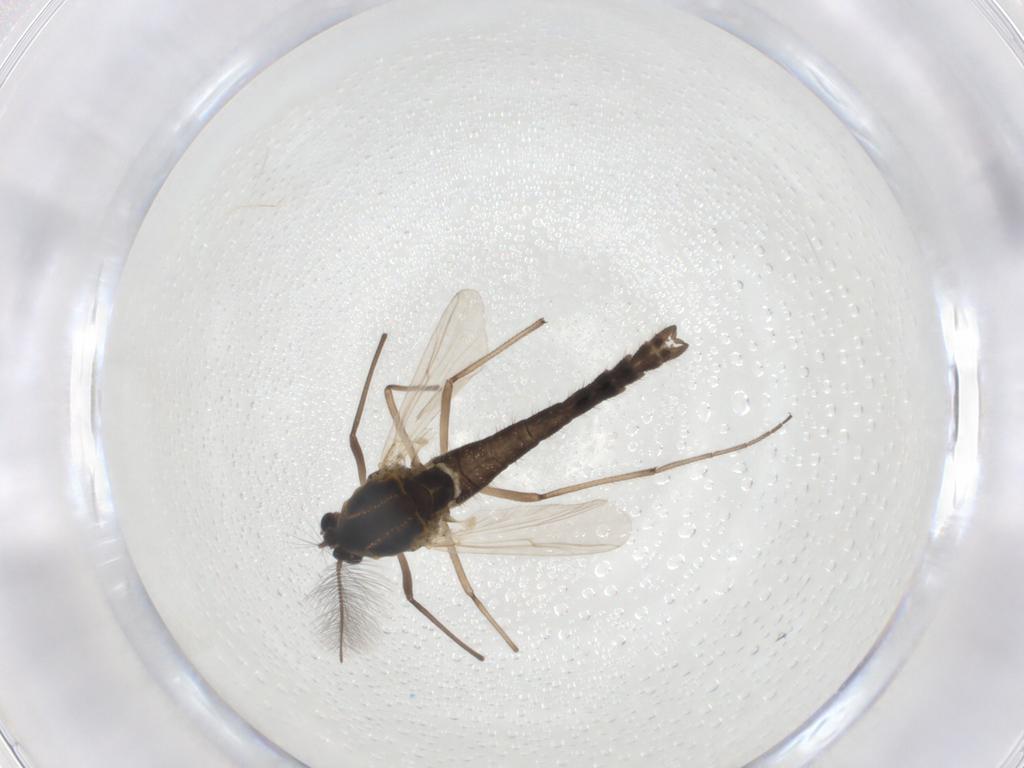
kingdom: Animalia
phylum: Arthropoda
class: Insecta
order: Diptera
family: Chironomidae
